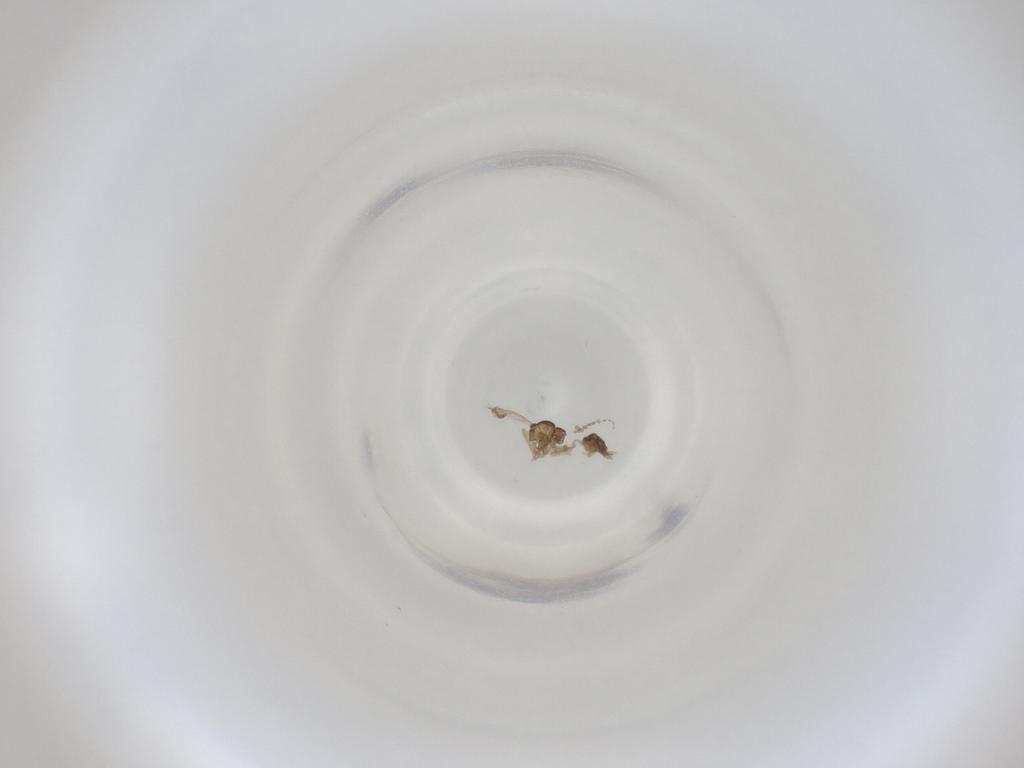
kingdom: Animalia
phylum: Arthropoda
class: Insecta
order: Diptera
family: Cecidomyiidae
